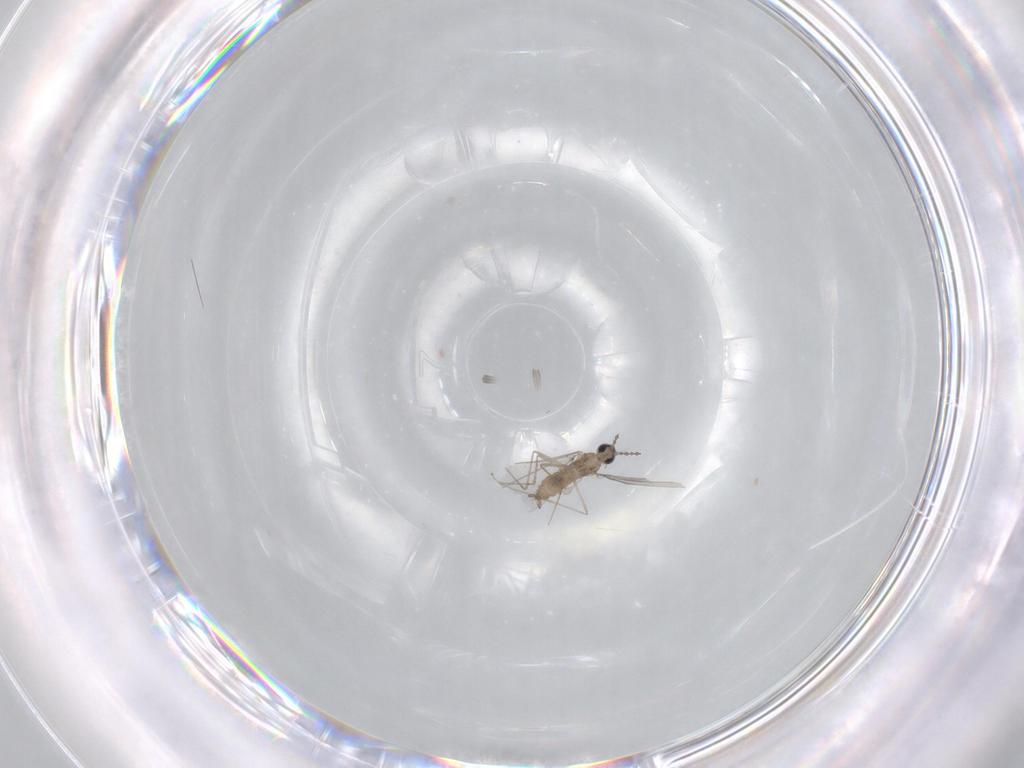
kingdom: Animalia
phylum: Arthropoda
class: Insecta
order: Diptera
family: Cecidomyiidae
